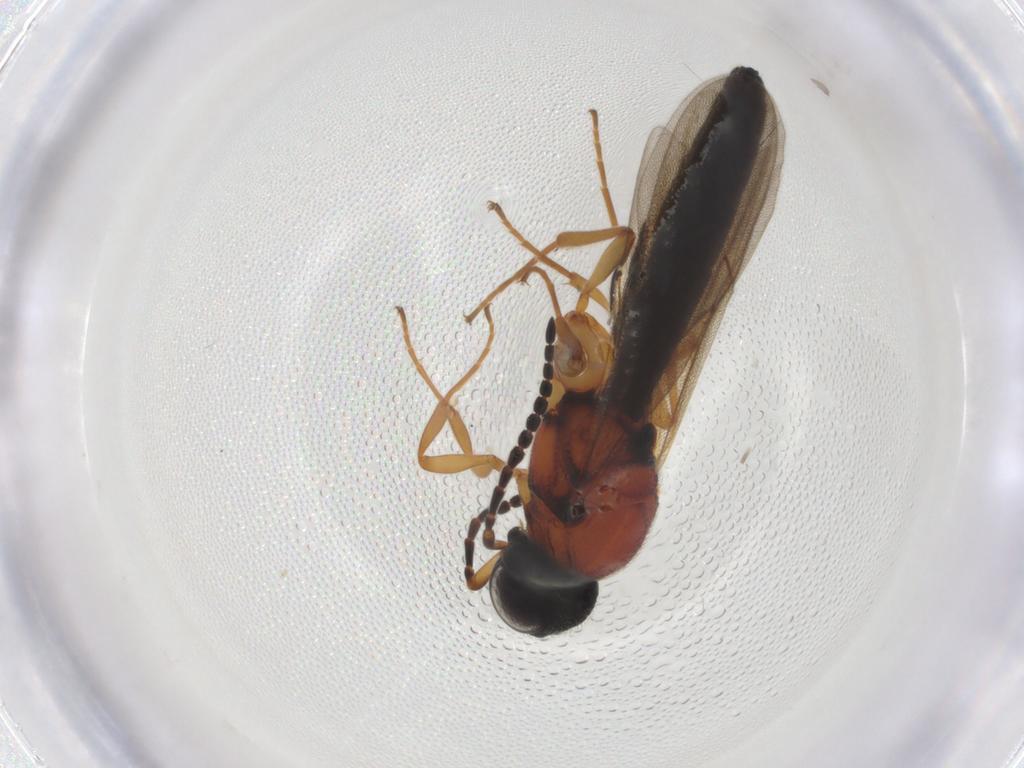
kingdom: Animalia
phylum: Arthropoda
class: Insecta
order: Hymenoptera
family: Scelionidae
